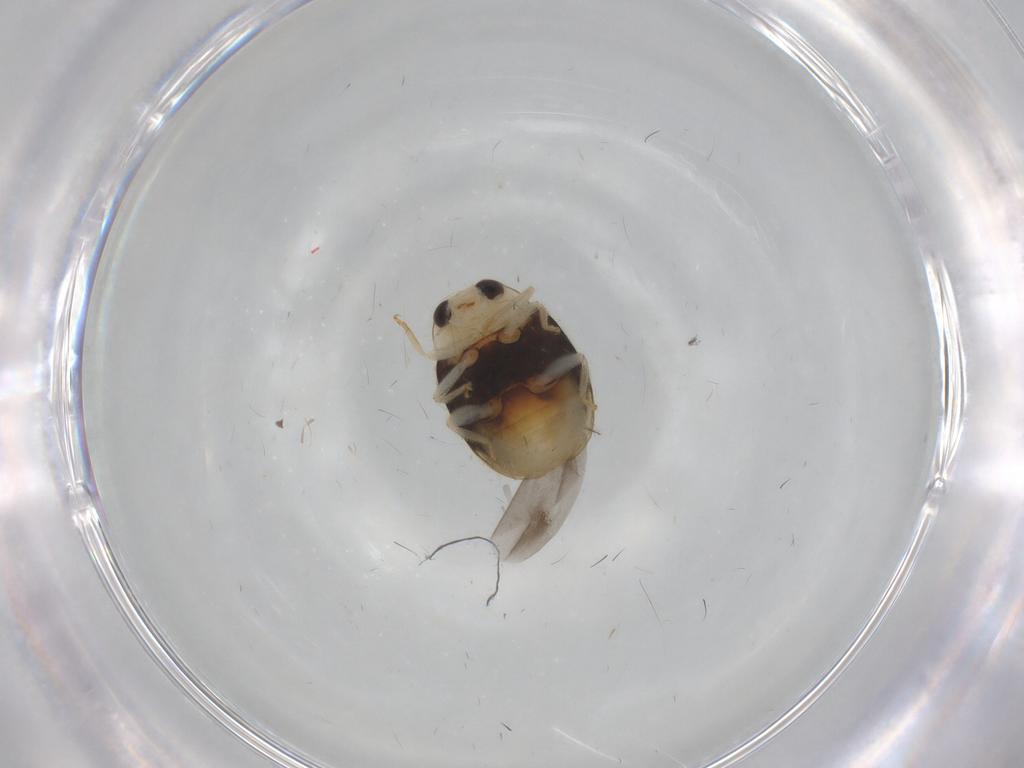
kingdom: Animalia
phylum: Arthropoda
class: Insecta
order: Coleoptera
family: Coccinellidae
